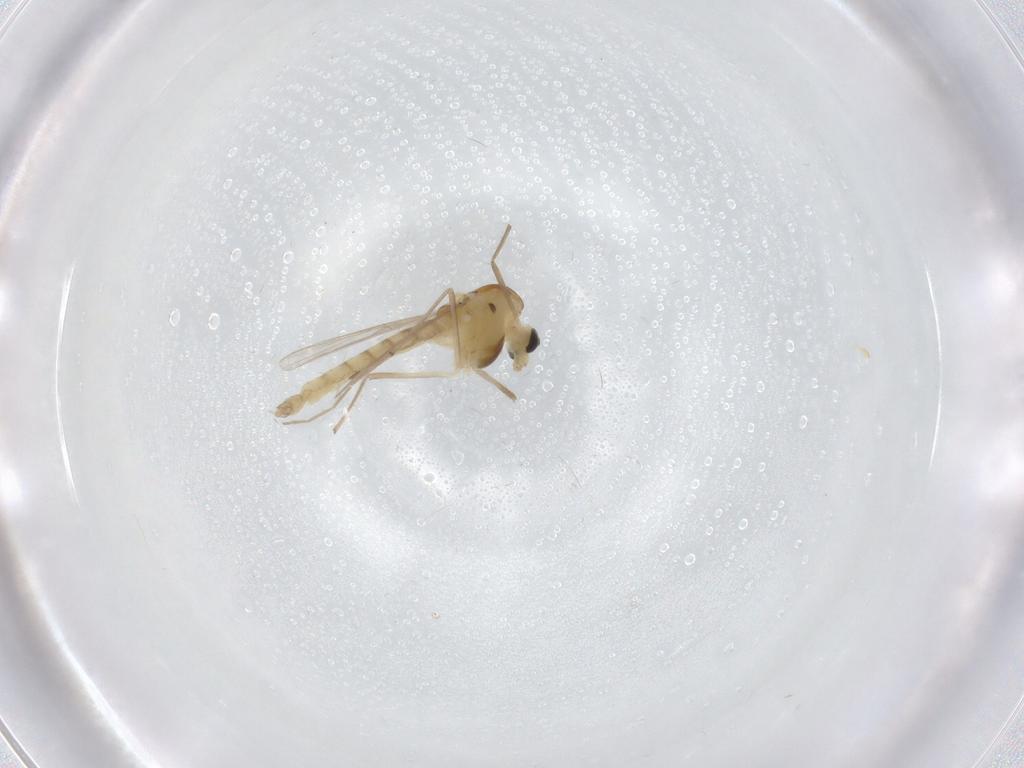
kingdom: Animalia
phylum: Arthropoda
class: Insecta
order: Diptera
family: Chironomidae
